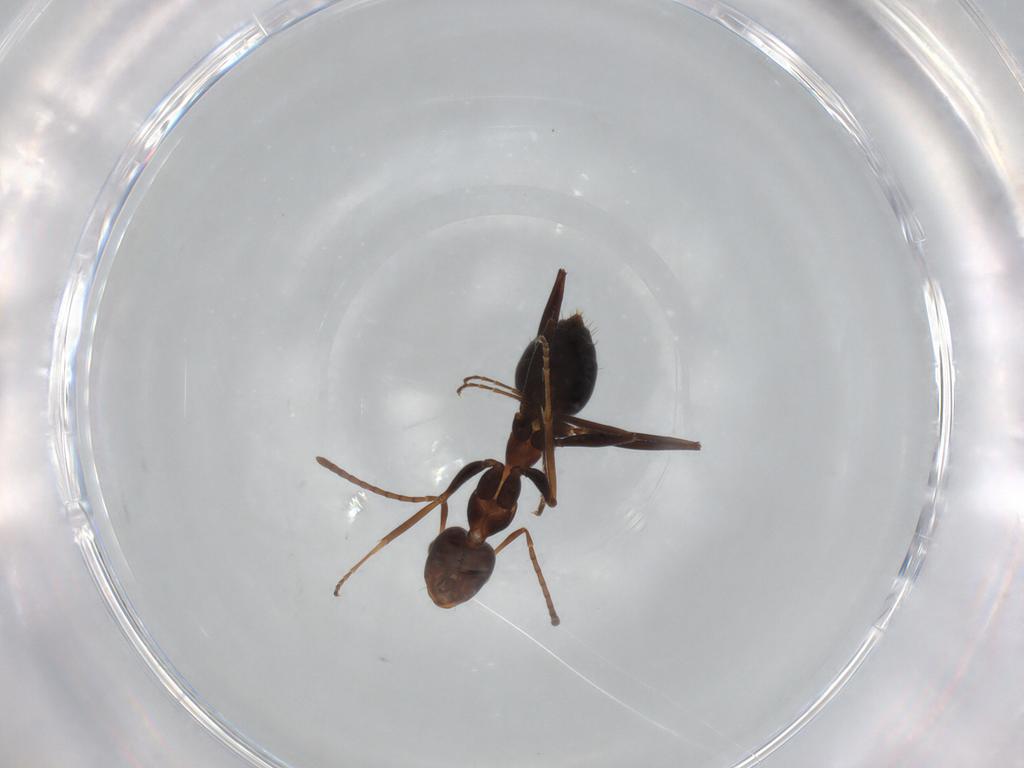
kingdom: Animalia
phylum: Arthropoda
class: Insecta
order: Hymenoptera
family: Formicidae
